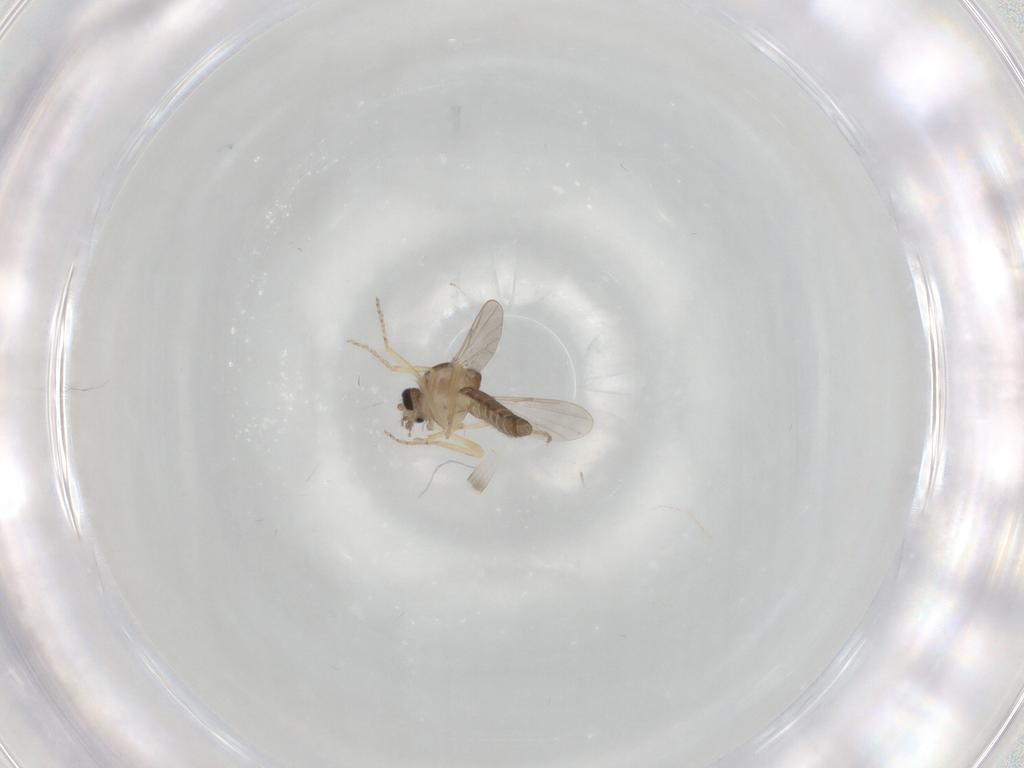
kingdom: Animalia
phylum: Arthropoda
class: Insecta
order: Diptera
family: Ceratopogonidae
